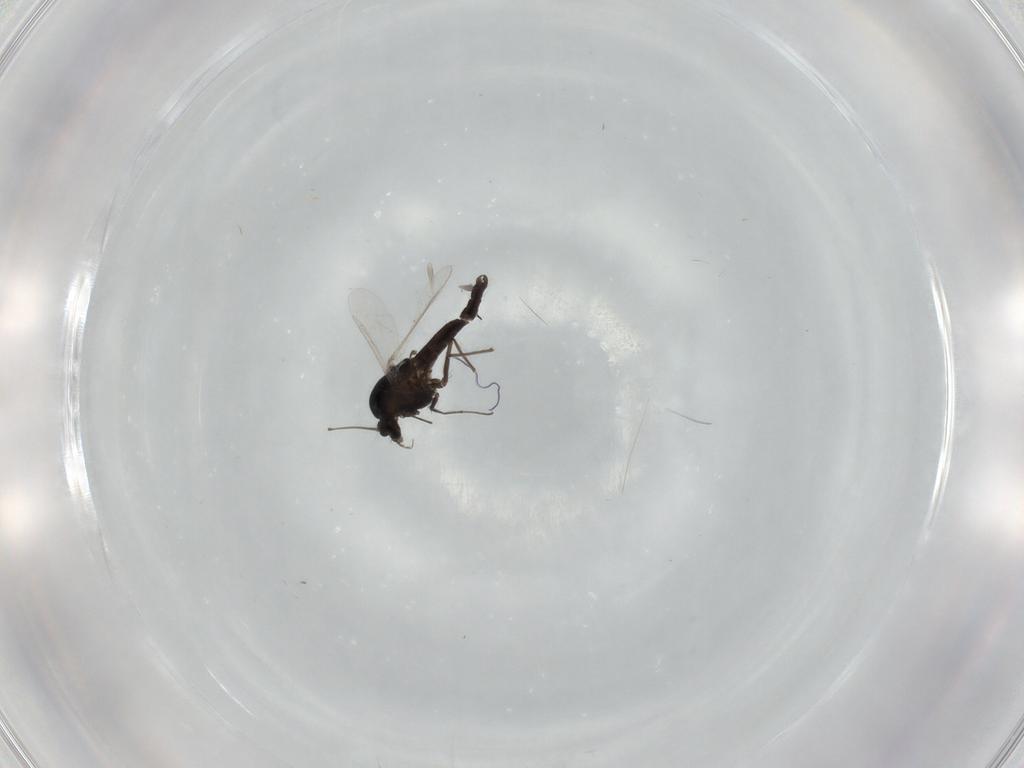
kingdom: Animalia
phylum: Arthropoda
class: Insecta
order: Diptera
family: Chironomidae
